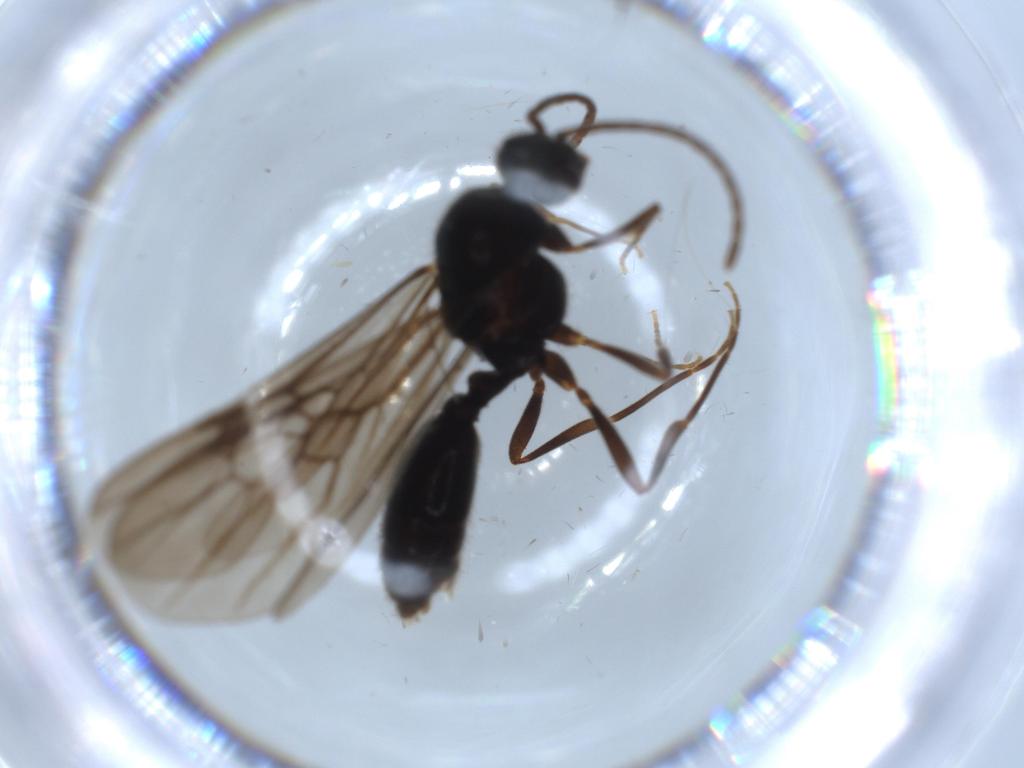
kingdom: Animalia
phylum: Arthropoda
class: Insecta
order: Hymenoptera
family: Formicidae
